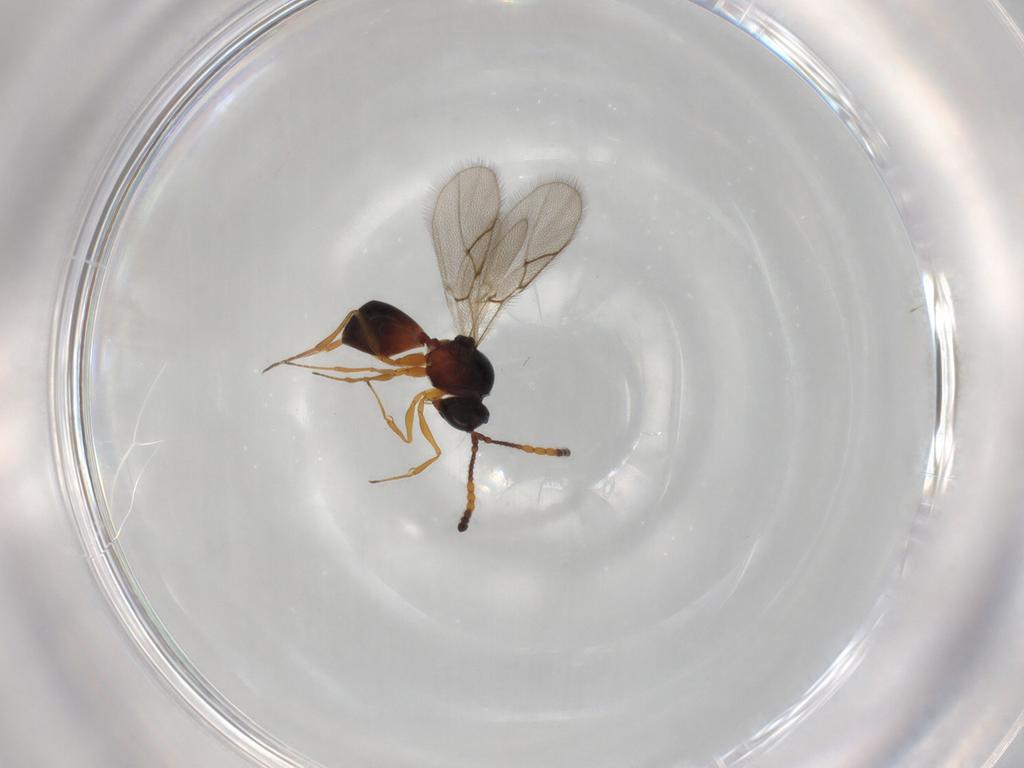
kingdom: Animalia
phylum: Arthropoda
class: Insecta
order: Hymenoptera
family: Figitidae
